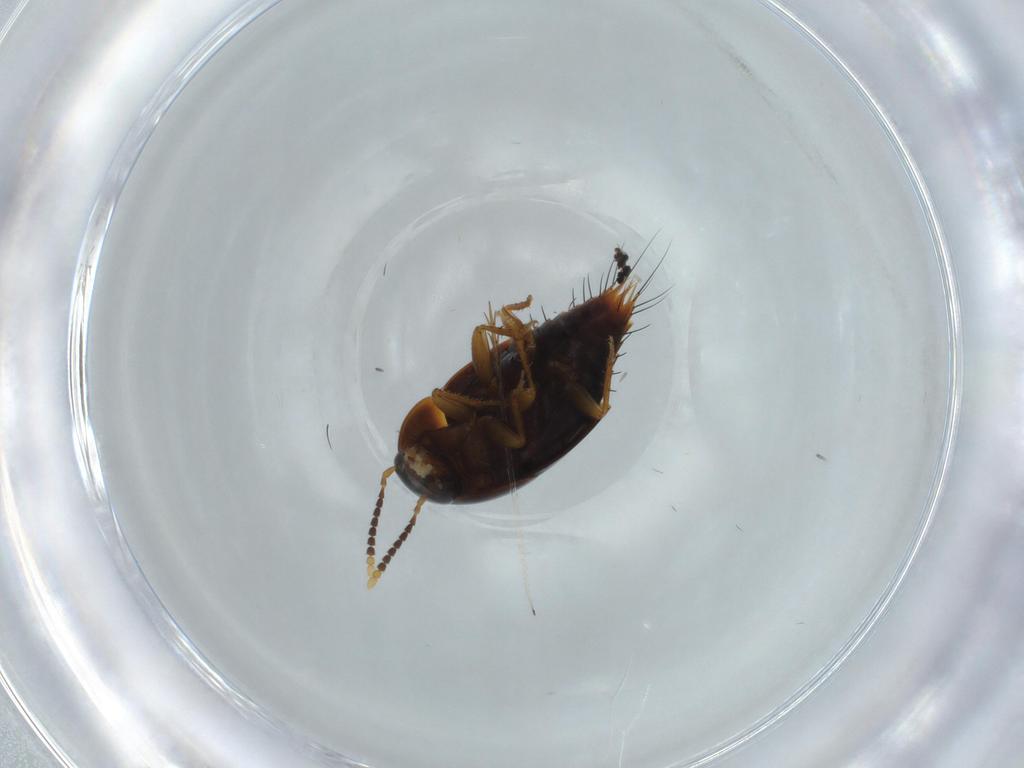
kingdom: Animalia
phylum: Arthropoda
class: Insecta
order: Coleoptera
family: Staphylinidae
